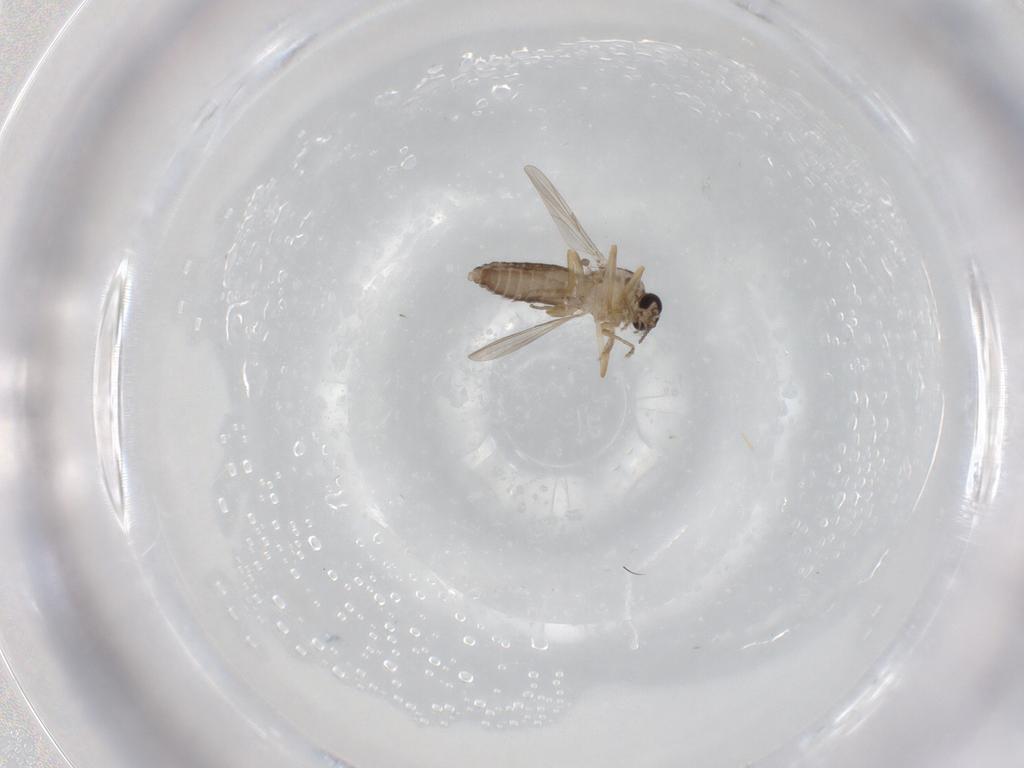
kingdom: Animalia
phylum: Arthropoda
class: Insecta
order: Diptera
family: Ceratopogonidae
